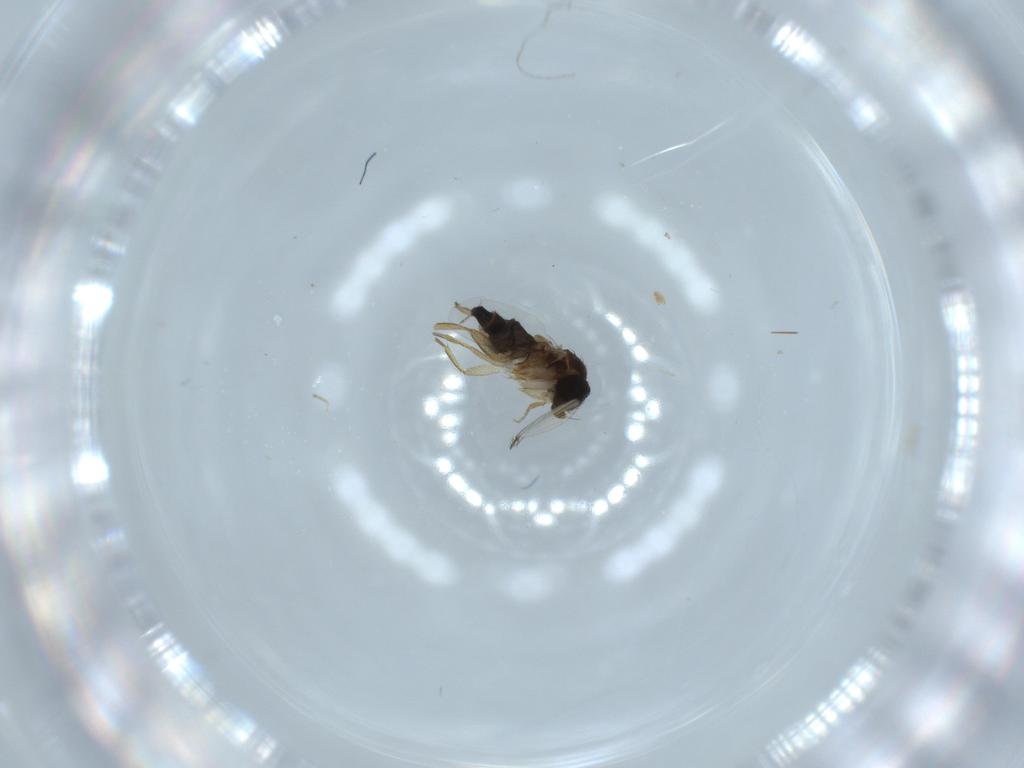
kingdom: Animalia
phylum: Arthropoda
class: Insecta
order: Diptera
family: Phoridae
